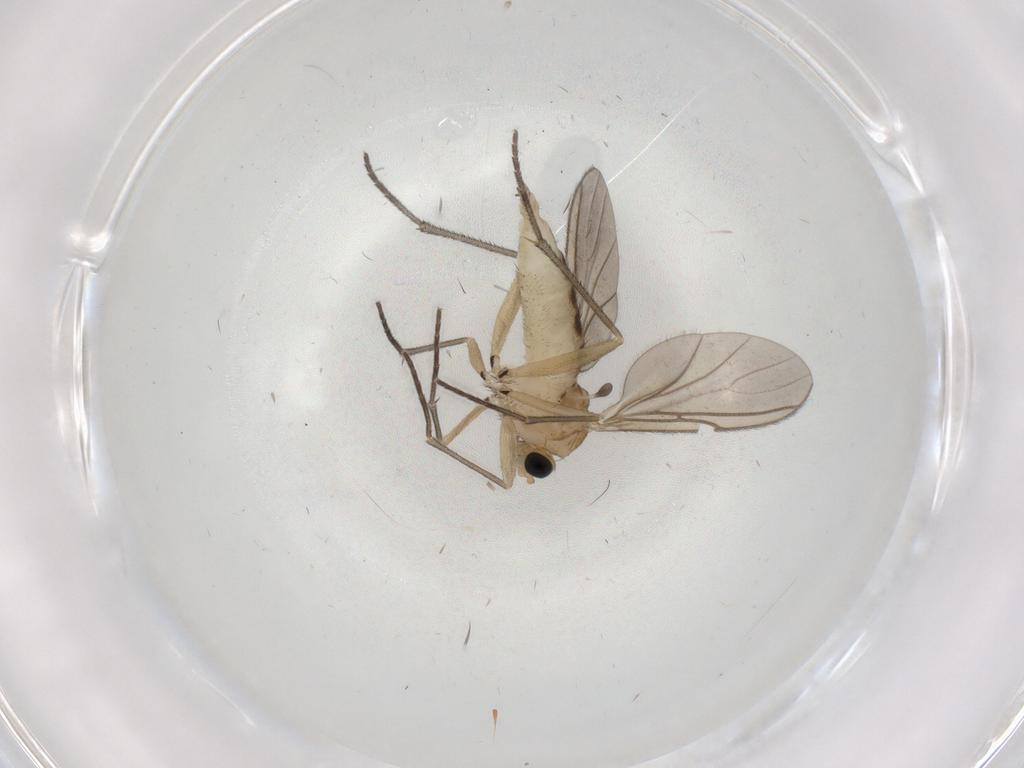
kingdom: Animalia
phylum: Arthropoda
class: Insecta
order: Diptera
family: Sciaridae
